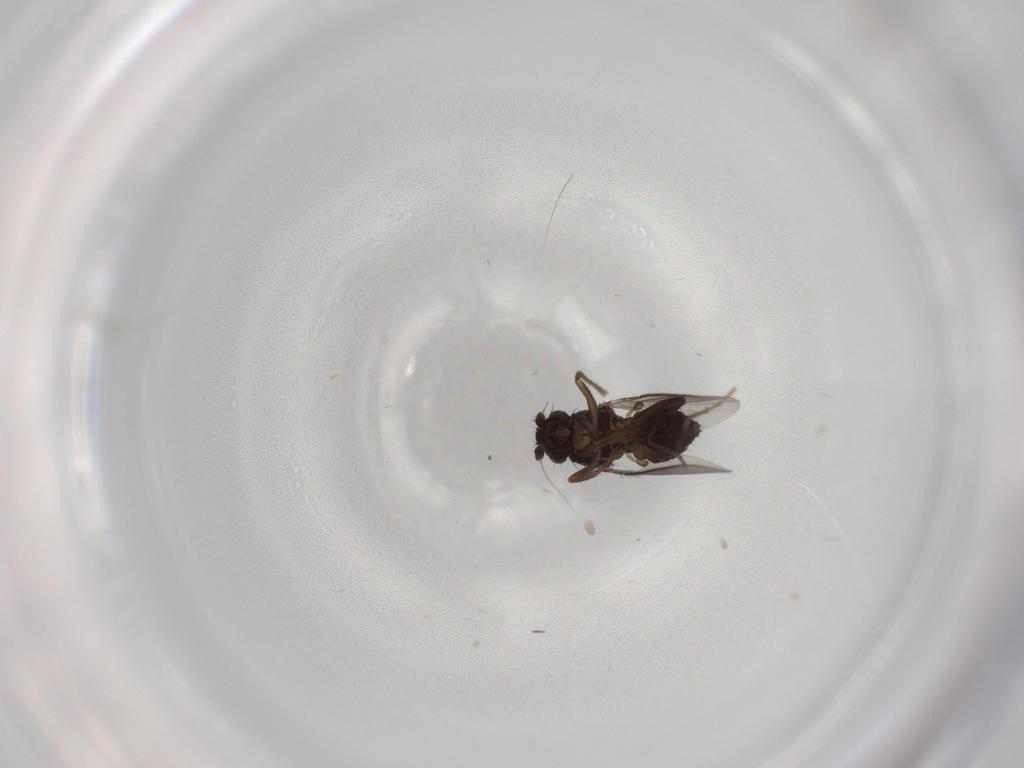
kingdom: Animalia
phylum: Arthropoda
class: Insecta
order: Diptera
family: Sphaeroceridae
